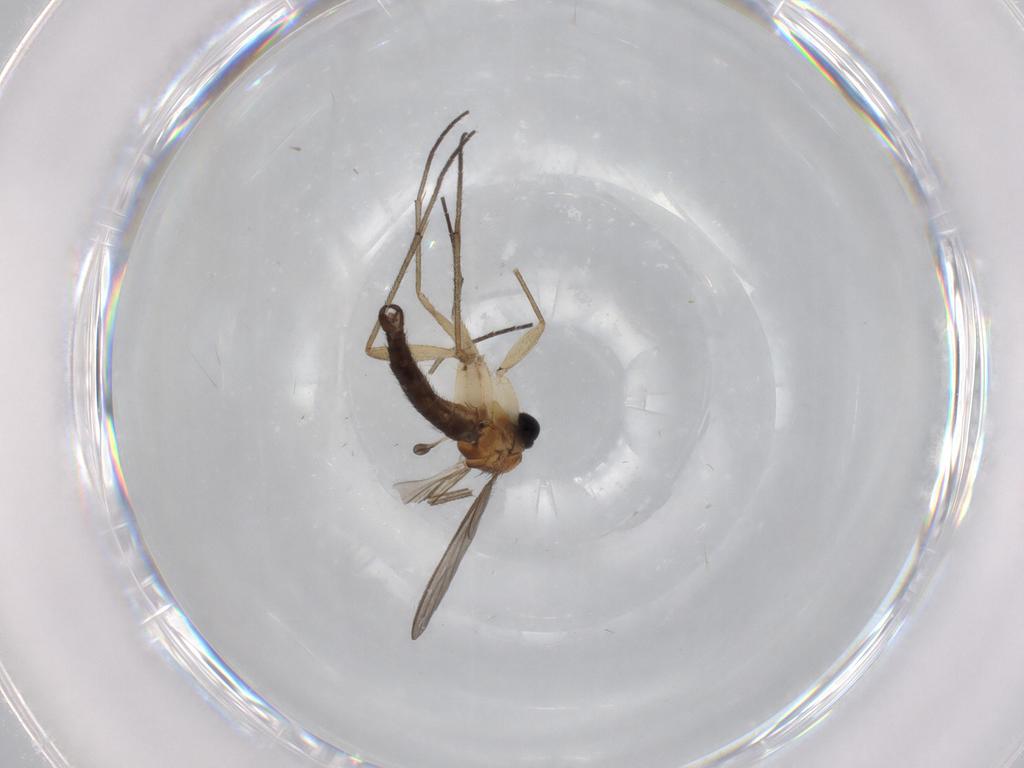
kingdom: Animalia
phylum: Arthropoda
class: Insecta
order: Diptera
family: Cecidomyiidae
